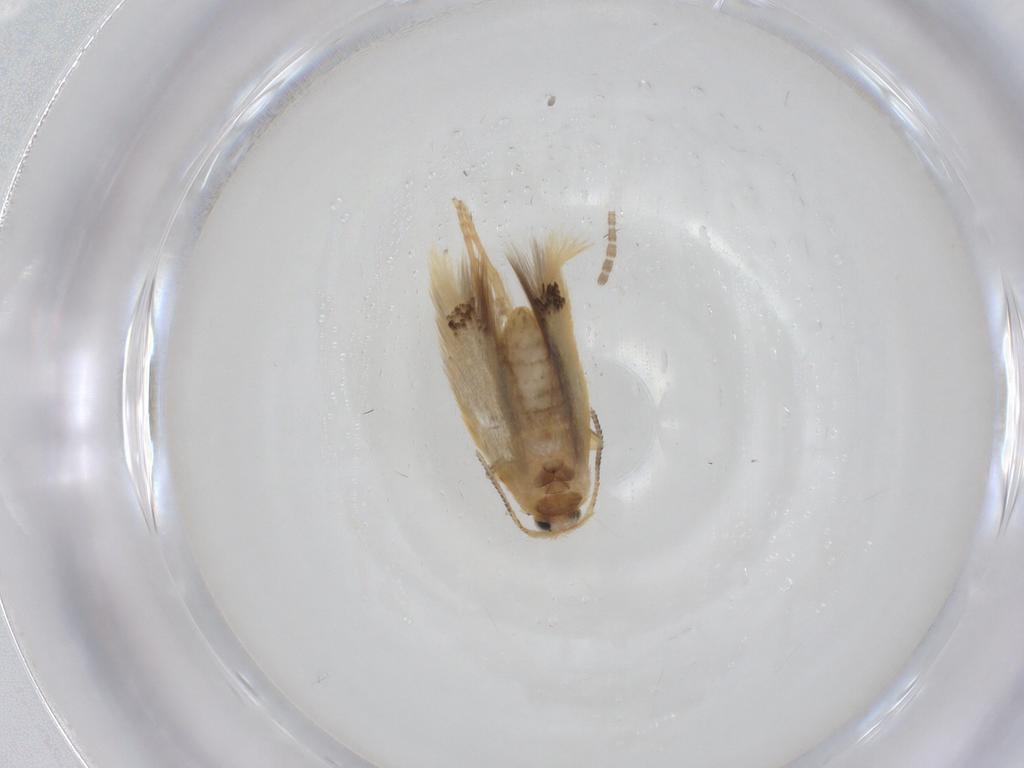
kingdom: Animalia
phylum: Arthropoda
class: Insecta
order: Lepidoptera
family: Nepticulidae
